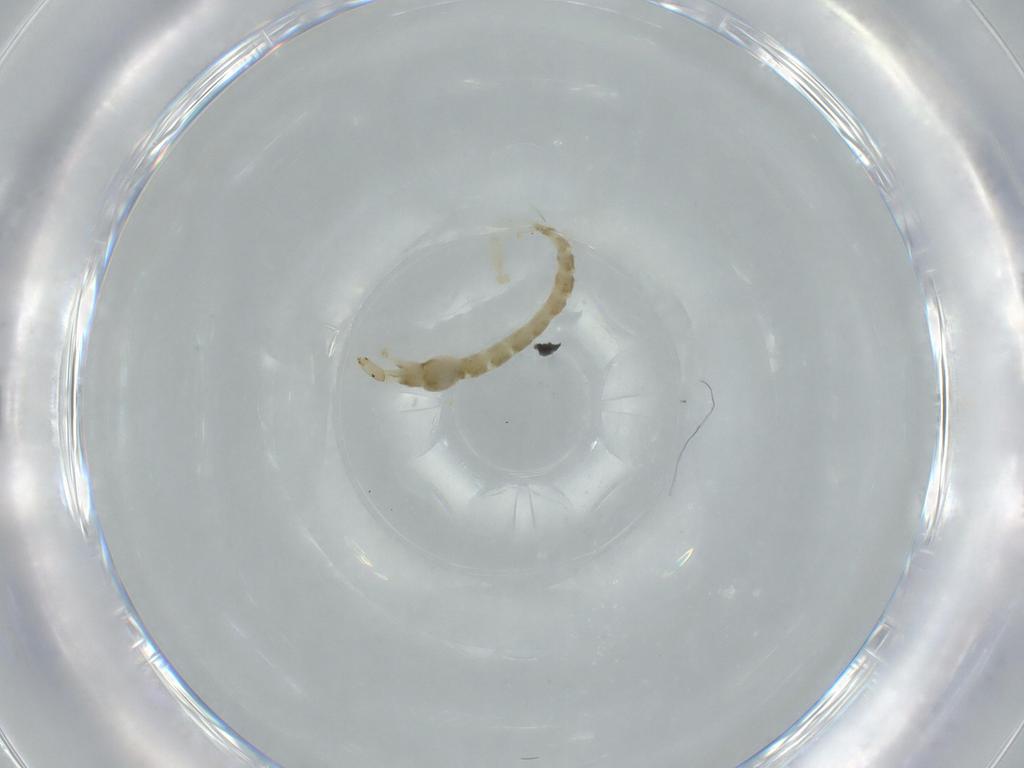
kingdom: Animalia
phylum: Arthropoda
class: Insecta
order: Diptera
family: Chironomidae
